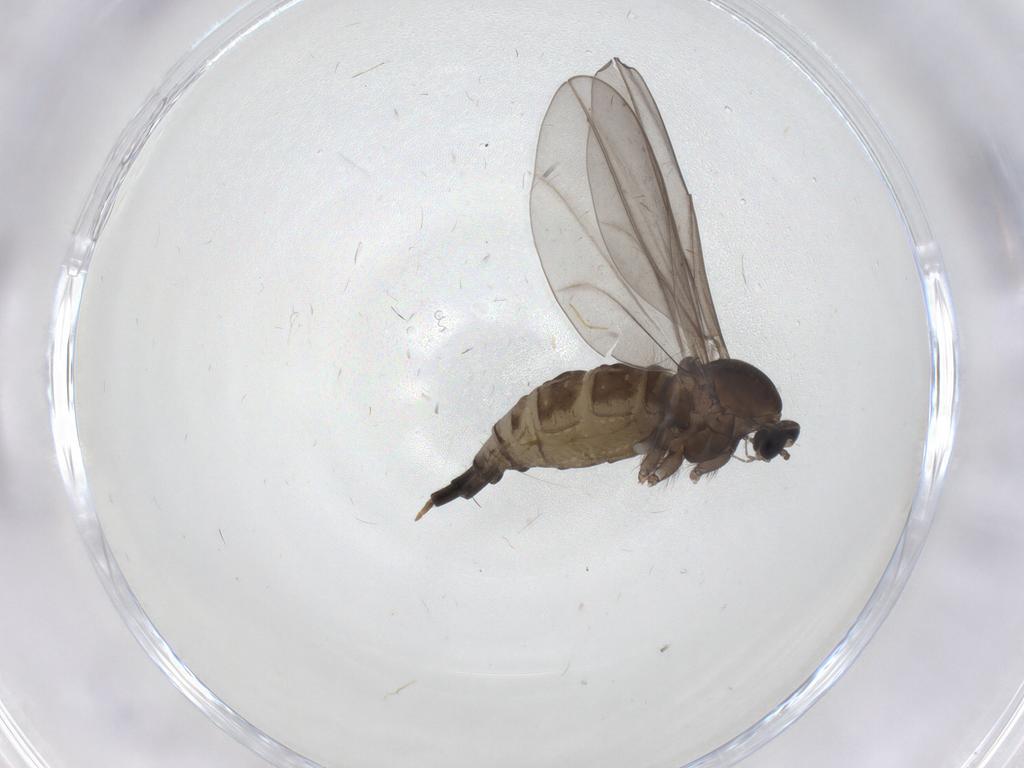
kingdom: Animalia
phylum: Arthropoda
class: Insecta
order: Diptera
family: Cecidomyiidae
